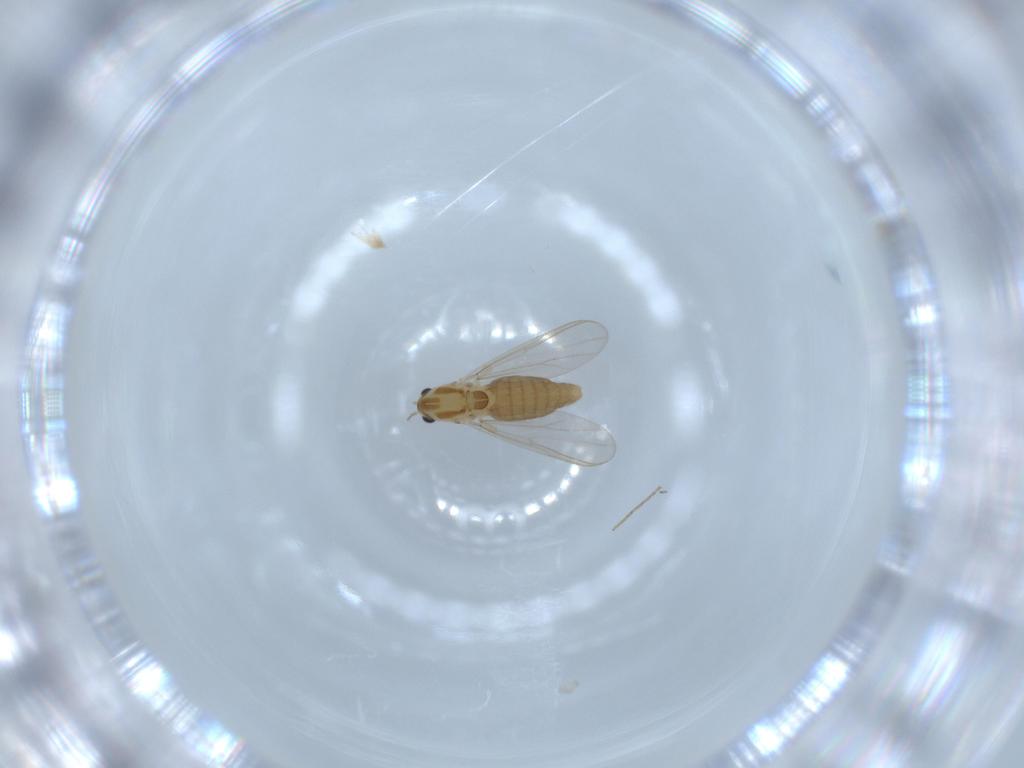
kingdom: Animalia
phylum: Arthropoda
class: Insecta
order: Diptera
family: Chironomidae
